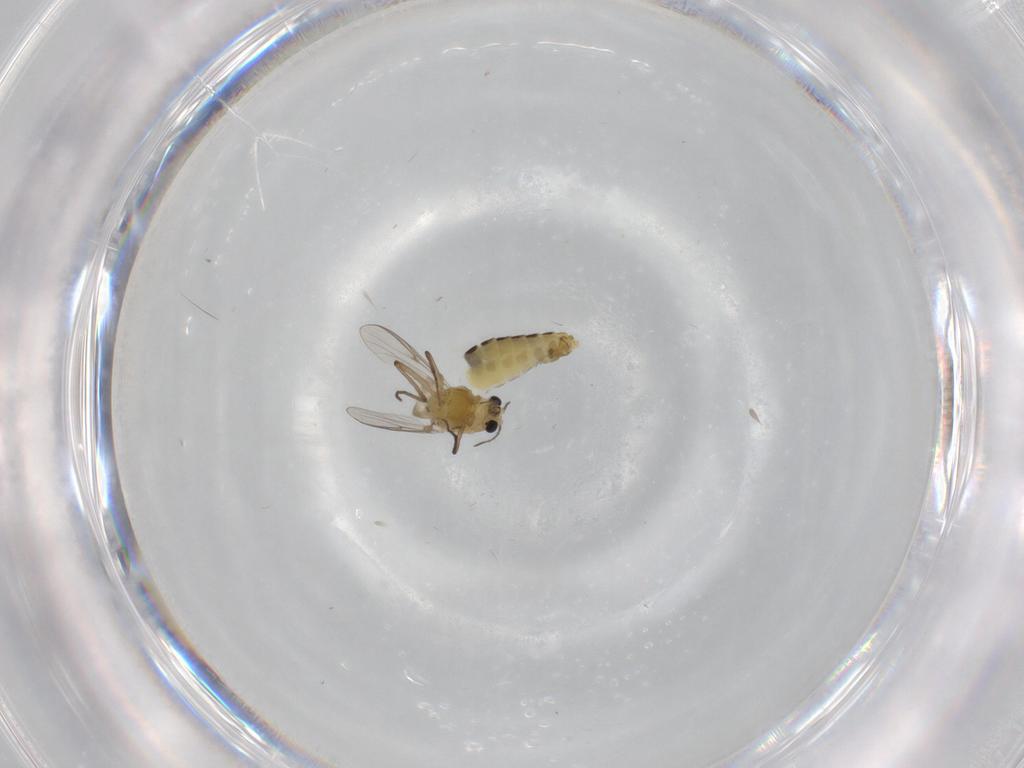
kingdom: Animalia
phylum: Arthropoda
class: Insecta
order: Diptera
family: Chironomidae
